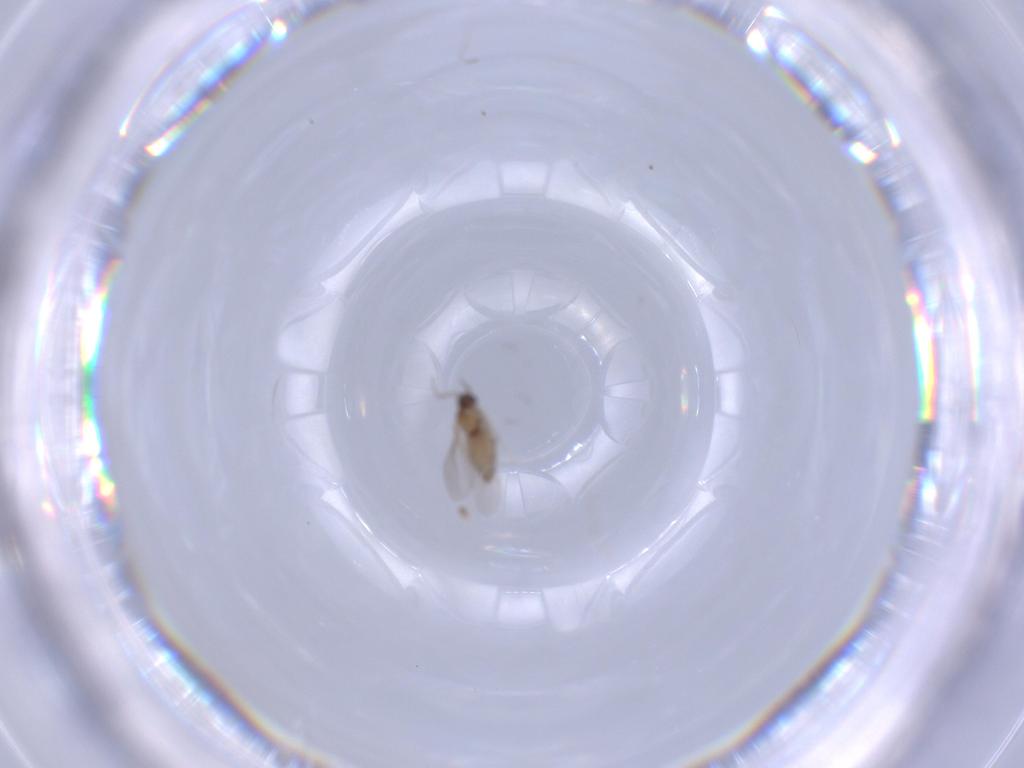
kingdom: Animalia
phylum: Arthropoda
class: Insecta
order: Diptera
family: Cecidomyiidae
